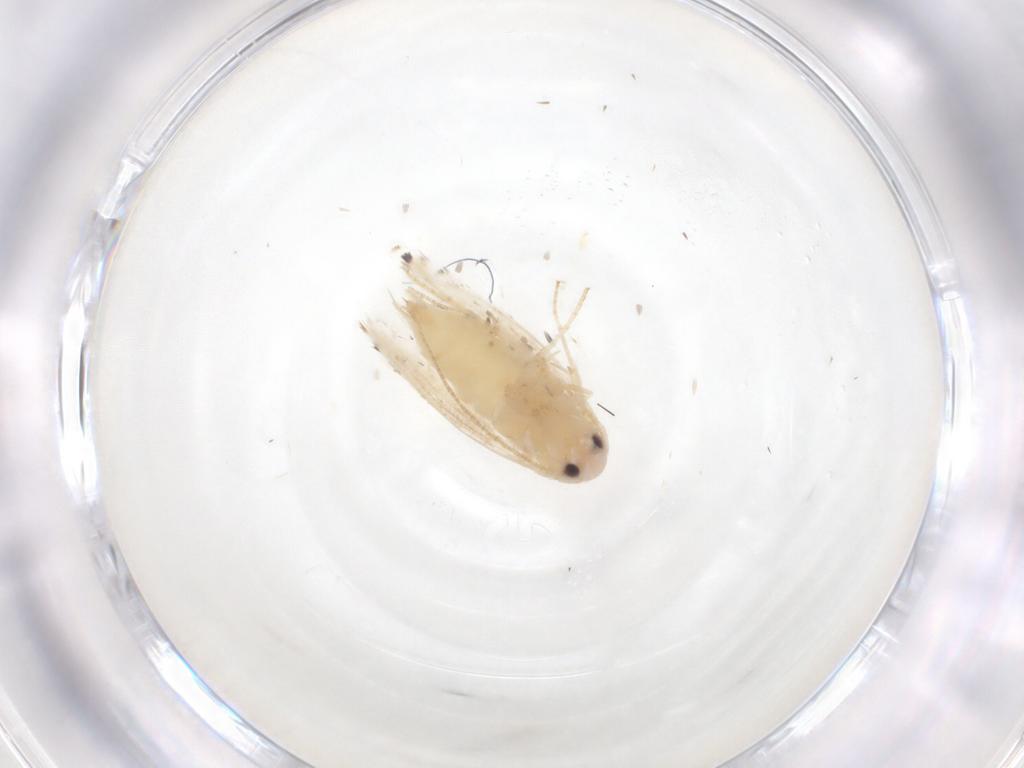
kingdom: Animalia
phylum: Arthropoda
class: Insecta
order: Lepidoptera
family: Gracillariidae
